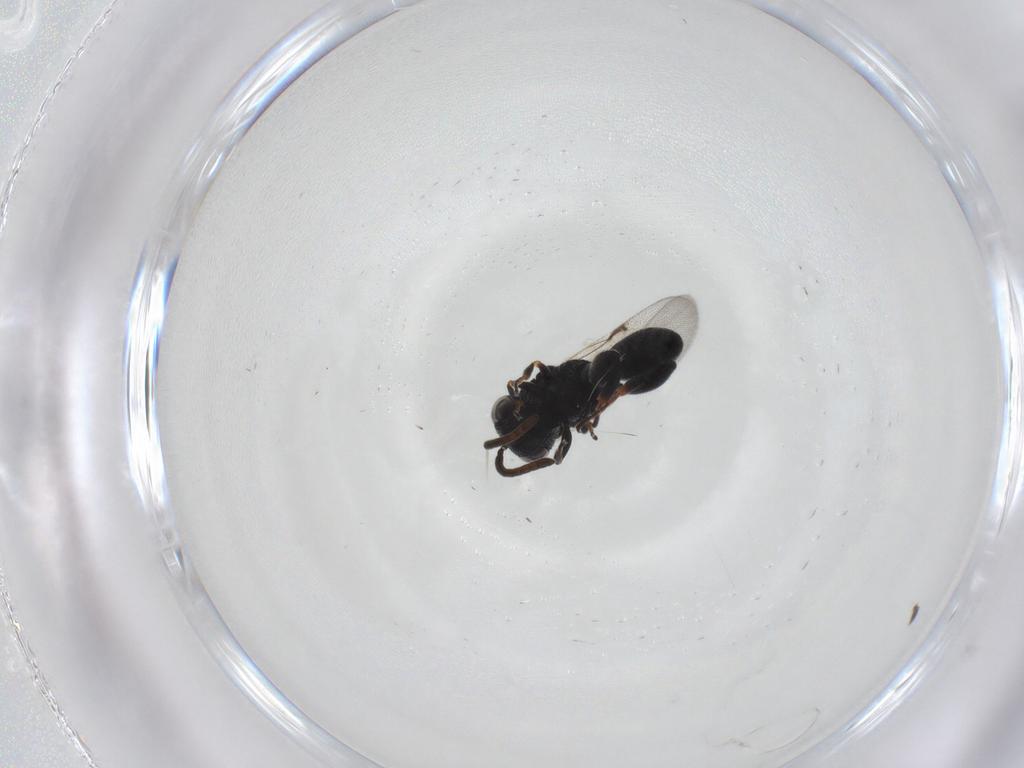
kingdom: Animalia
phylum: Arthropoda
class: Insecta
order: Hymenoptera
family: Chalcididae
